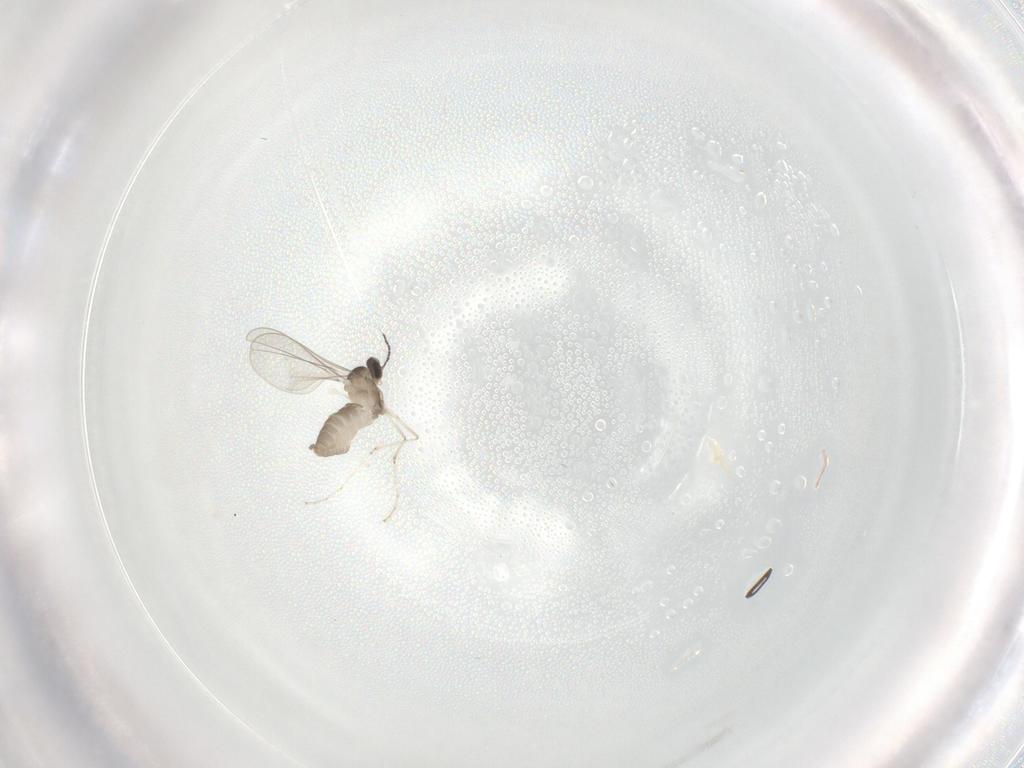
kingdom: Animalia
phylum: Arthropoda
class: Insecta
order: Diptera
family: Cecidomyiidae
